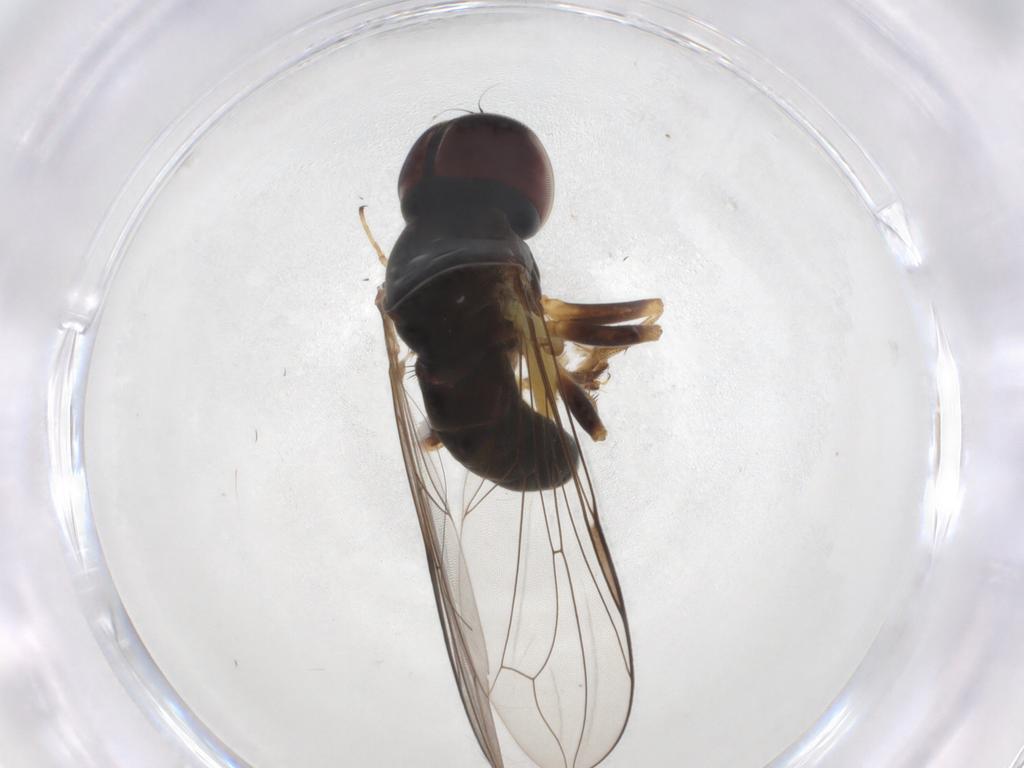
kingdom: Animalia
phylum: Arthropoda
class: Insecta
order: Diptera
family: Pipunculidae
